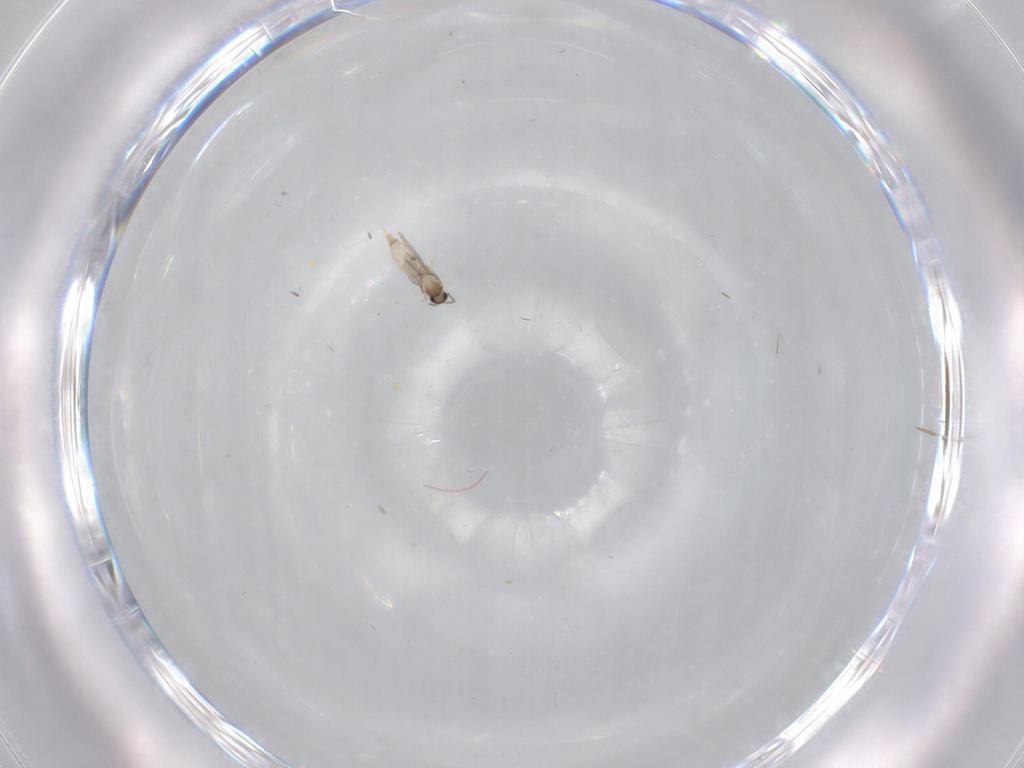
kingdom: Animalia
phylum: Arthropoda
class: Insecta
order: Diptera
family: Phoridae
